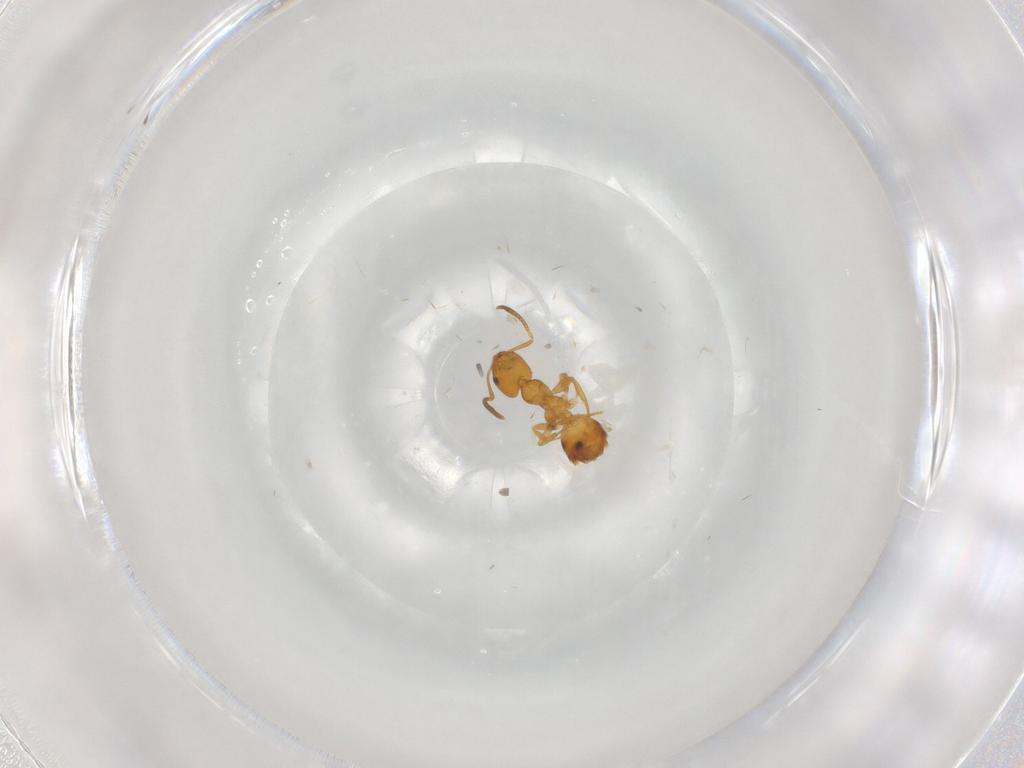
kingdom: Animalia
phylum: Arthropoda
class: Insecta
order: Hymenoptera
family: Formicidae
